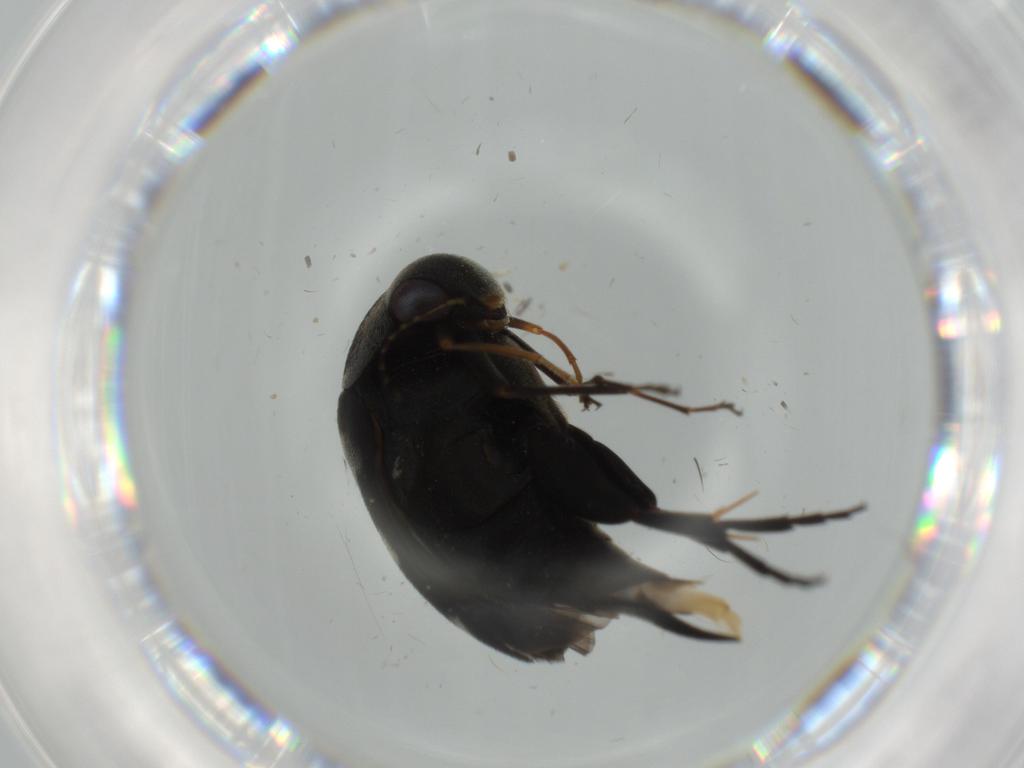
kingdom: Animalia
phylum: Arthropoda
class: Insecta
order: Coleoptera
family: Mordellidae
